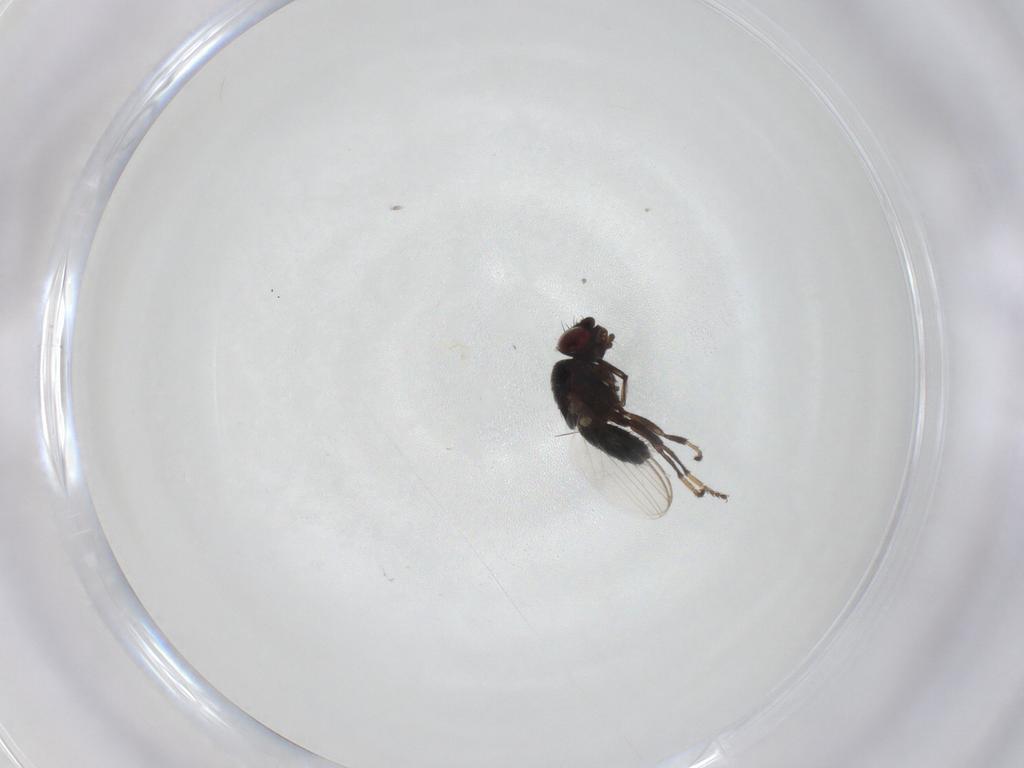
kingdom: Animalia
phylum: Arthropoda
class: Insecta
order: Diptera
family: Milichiidae
